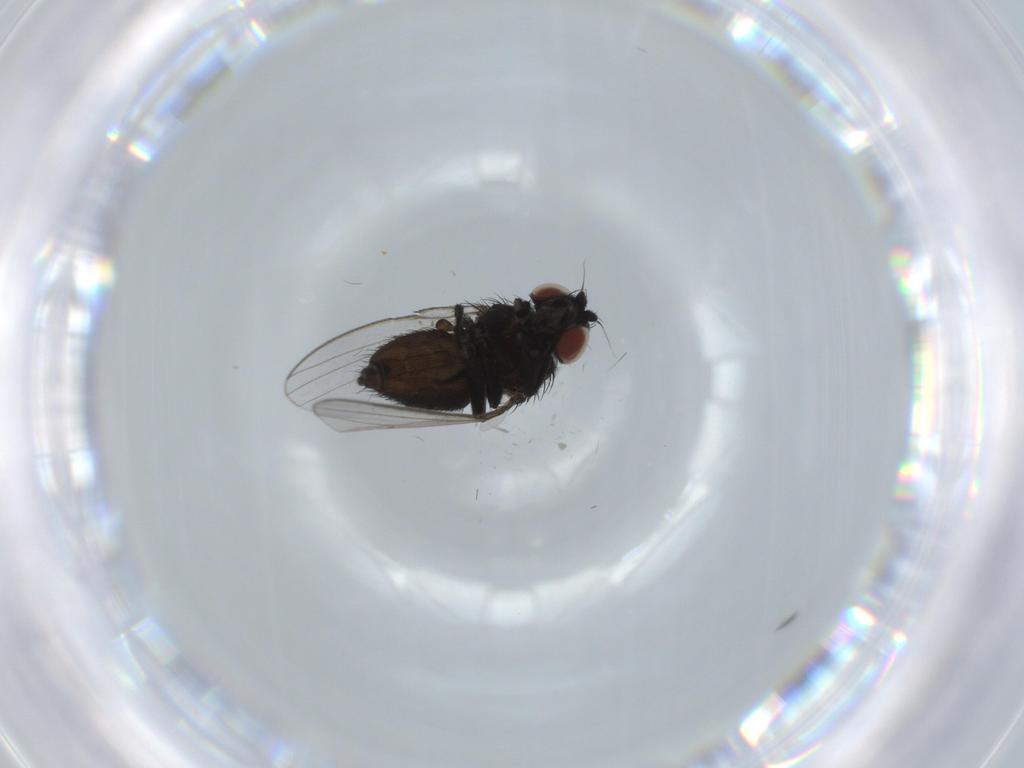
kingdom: Animalia
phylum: Arthropoda
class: Insecta
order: Diptera
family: Milichiidae
